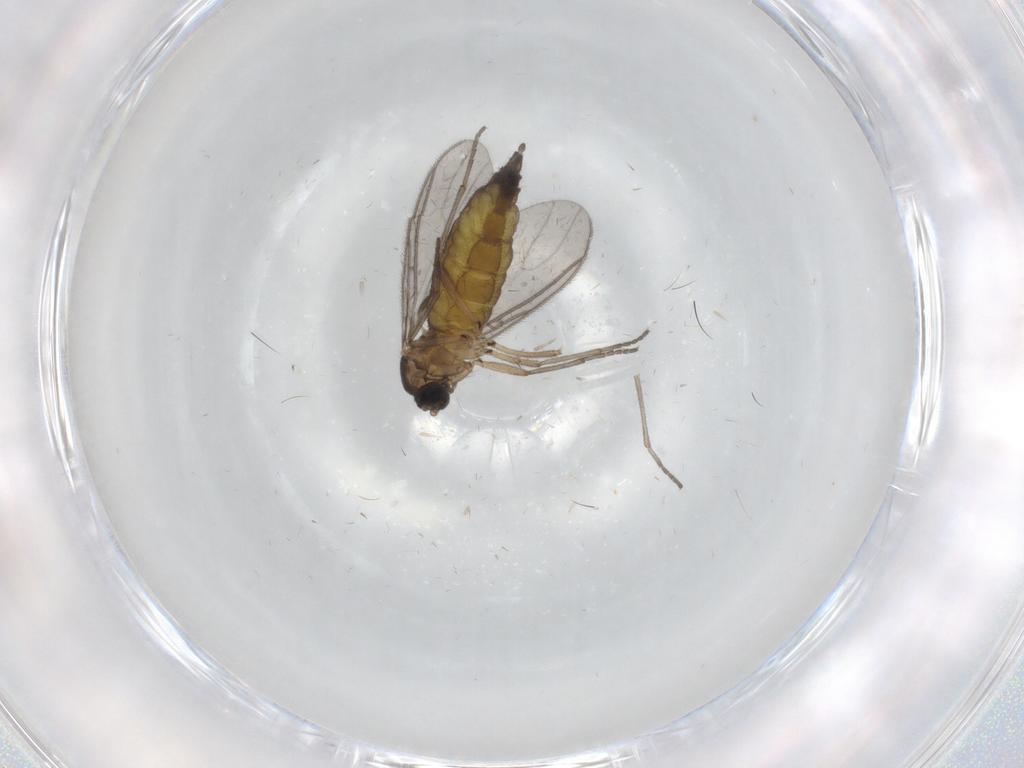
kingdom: Animalia
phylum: Arthropoda
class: Insecta
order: Diptera
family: Sciaridae
